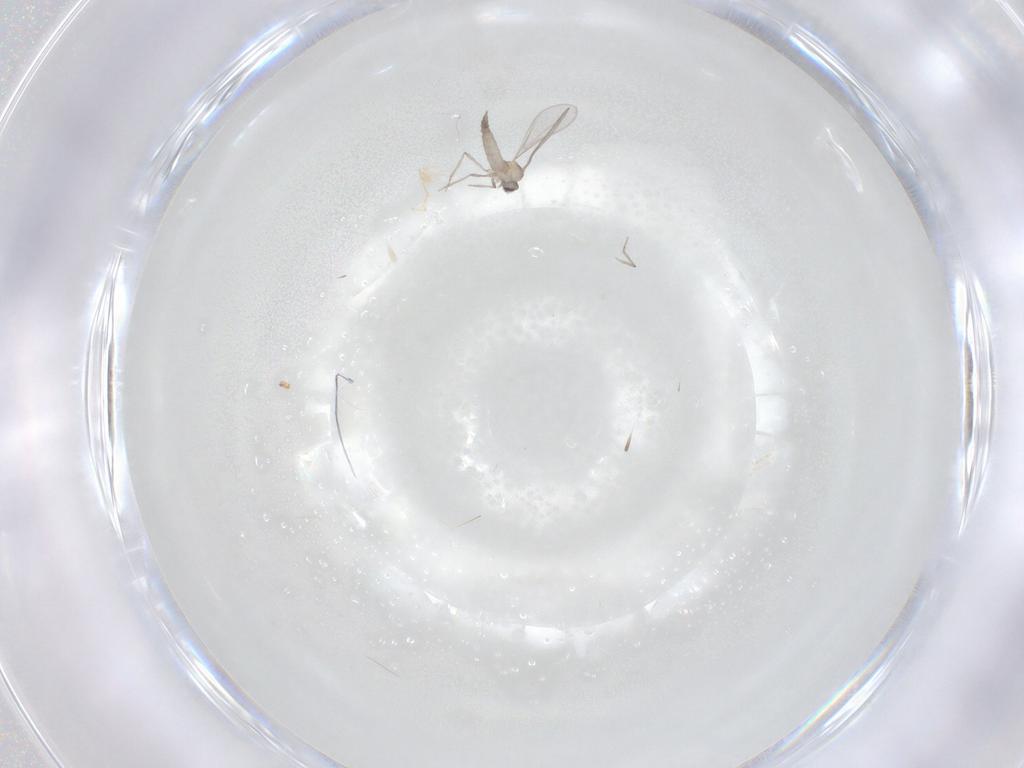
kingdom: Animalia
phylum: Arthropoda
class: Insecta
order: Diptera
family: Cecidomyiidae
